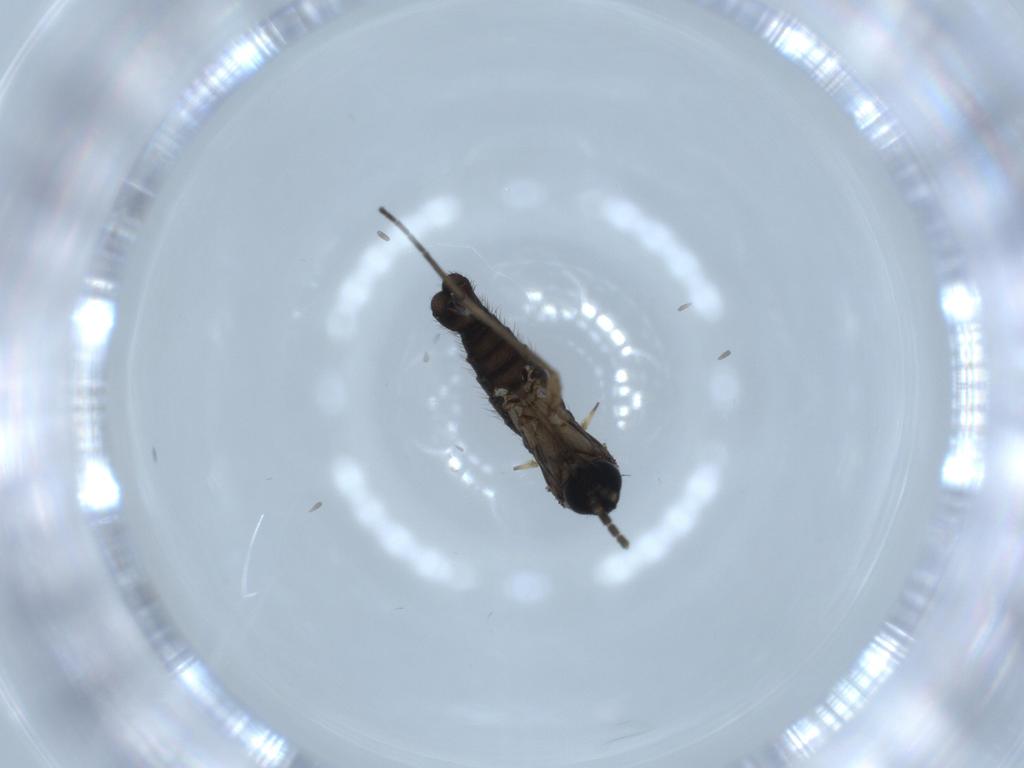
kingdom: Animalia
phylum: Arthropoda
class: Insecta
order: Diptera
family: Sciaridae
